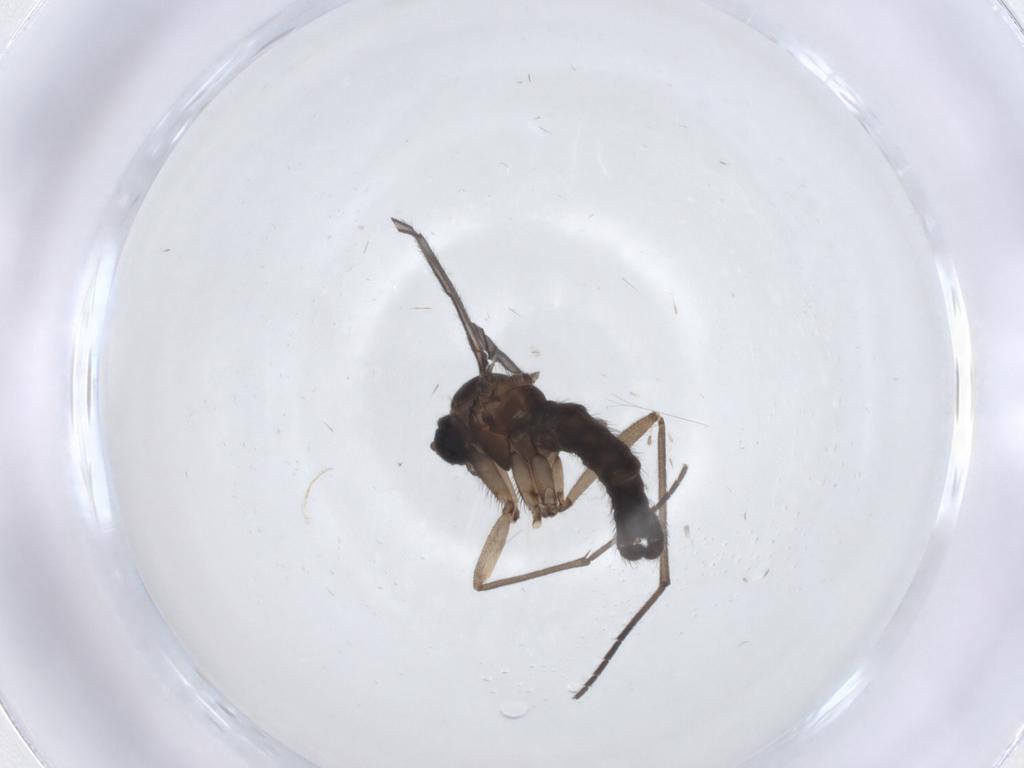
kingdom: Animalia
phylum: Arthropoda
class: Insecta
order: Diptera
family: Sciaridae
